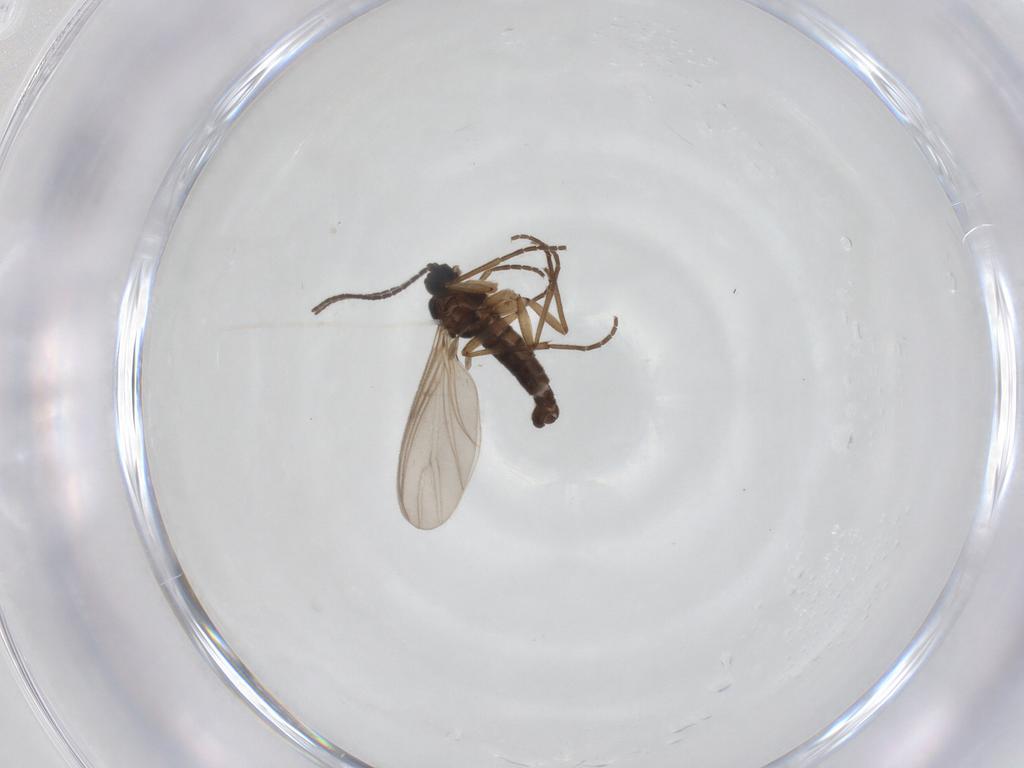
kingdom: Animalia
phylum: Arthropoda
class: Insecta
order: Diptera
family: Sciaridae
